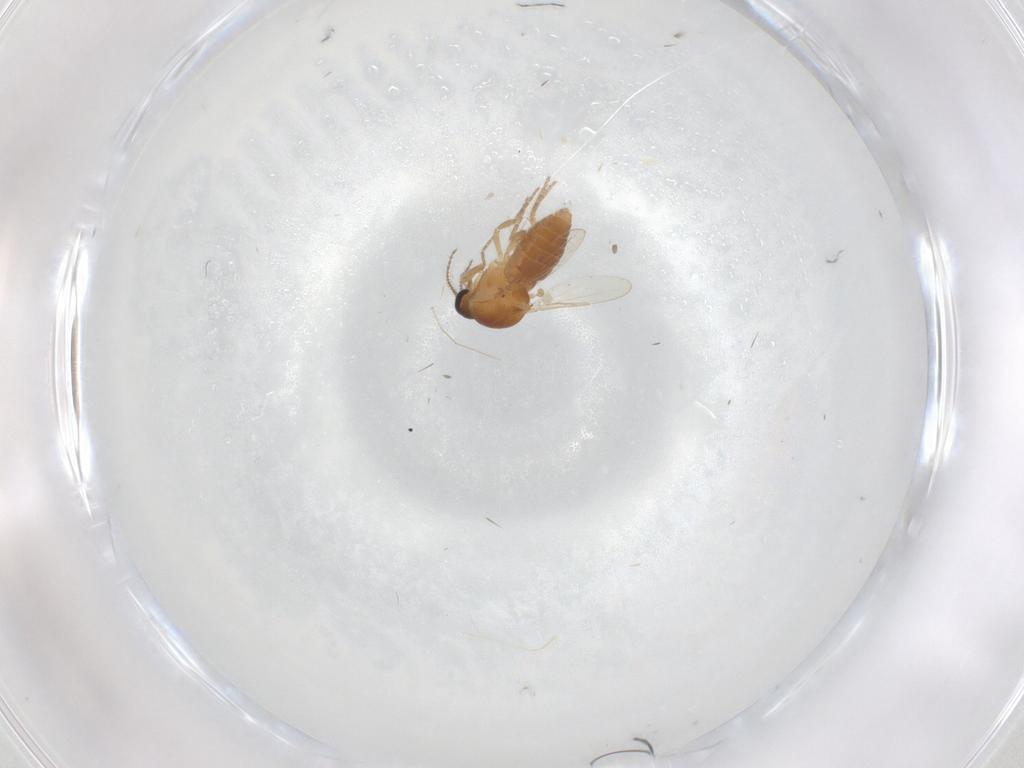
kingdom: Animalia
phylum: Arthropoda
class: Insecta
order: Diptera
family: Ceratopogonidae
